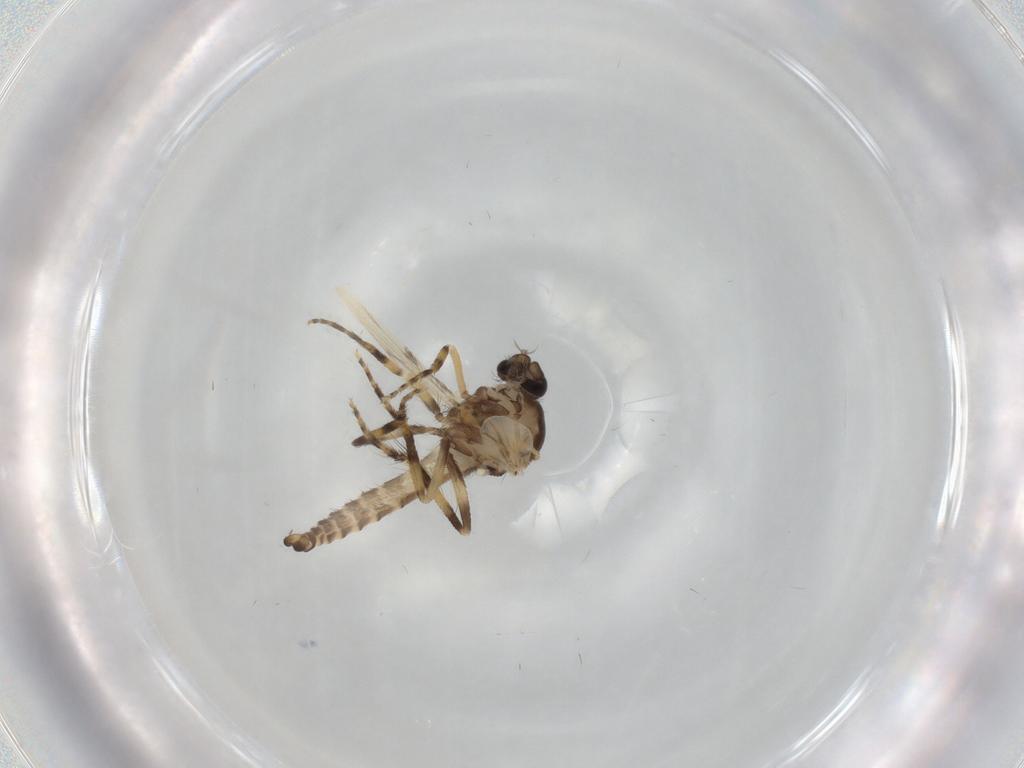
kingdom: Animalia
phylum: Arthropoda
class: Insecta
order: Diptera
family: Ceratopogonidae
